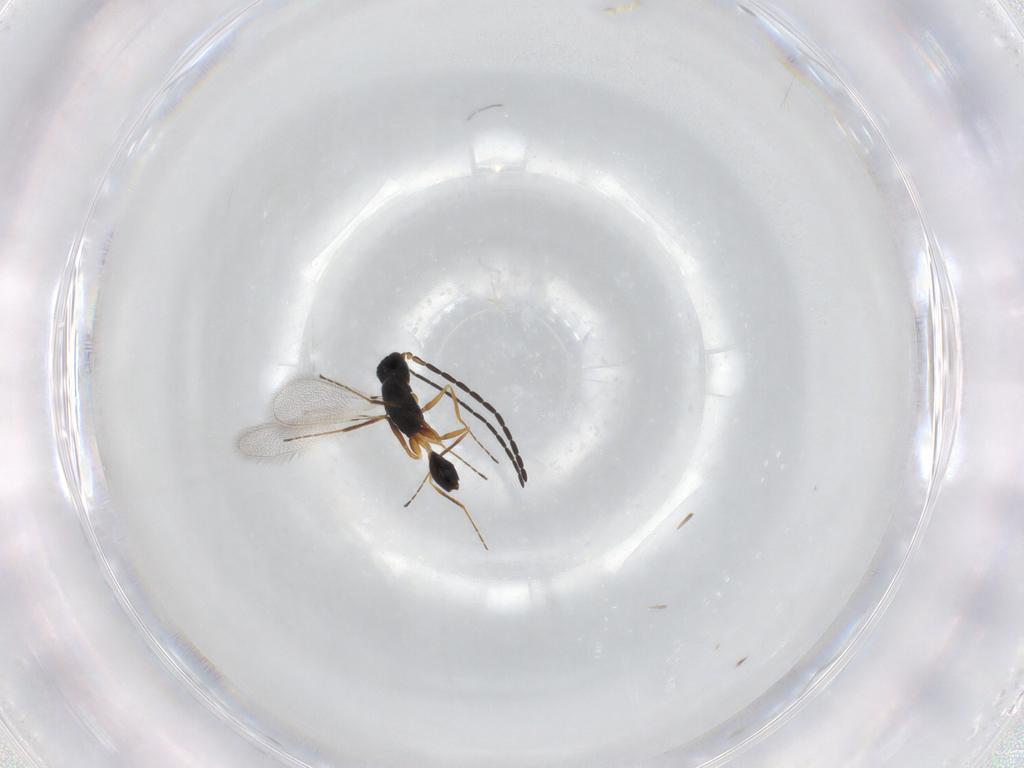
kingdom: Animalia
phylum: Arthropoda
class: Insecta
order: Hymenoptera
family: Mymaridae
